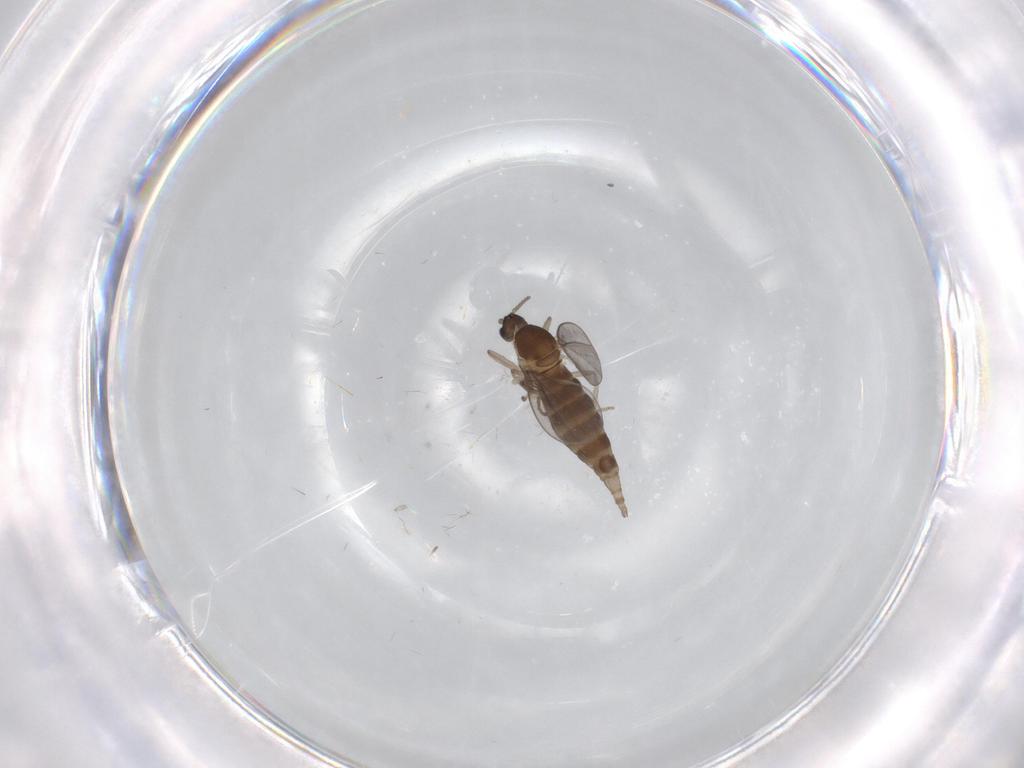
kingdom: Animalia
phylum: Arthropoda
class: Insecta
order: Diptera
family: Cecidomyiidae
